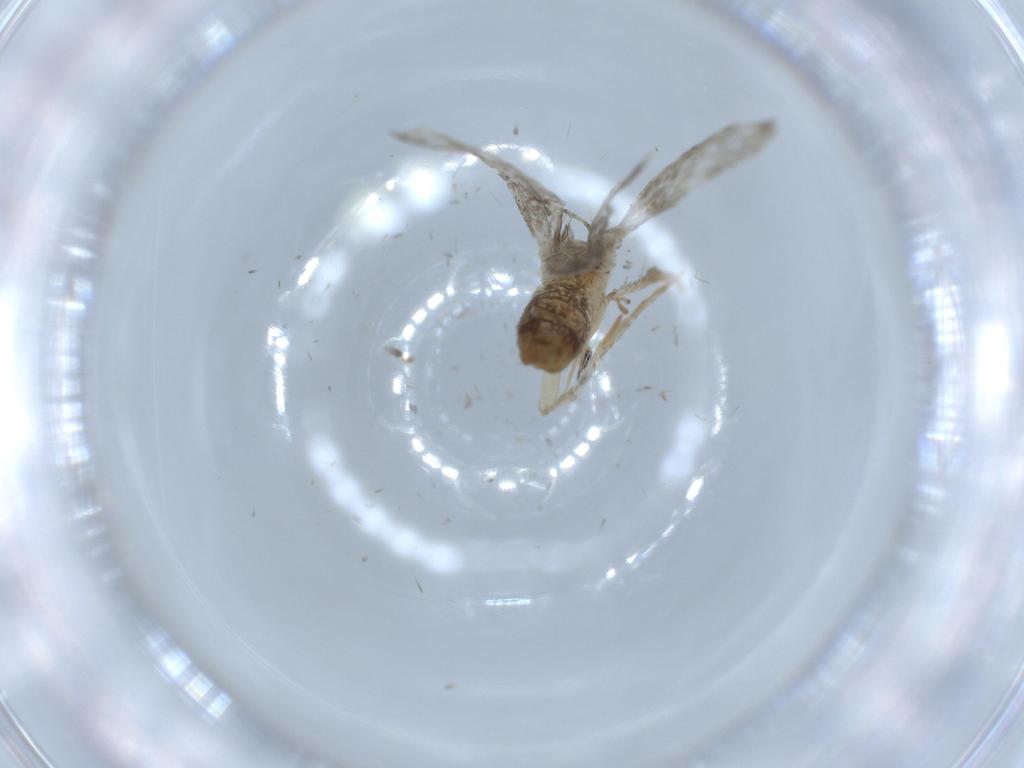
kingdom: Animalia
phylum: Arthropoda
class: Insecta
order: Lepidoptera
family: Tineidae
